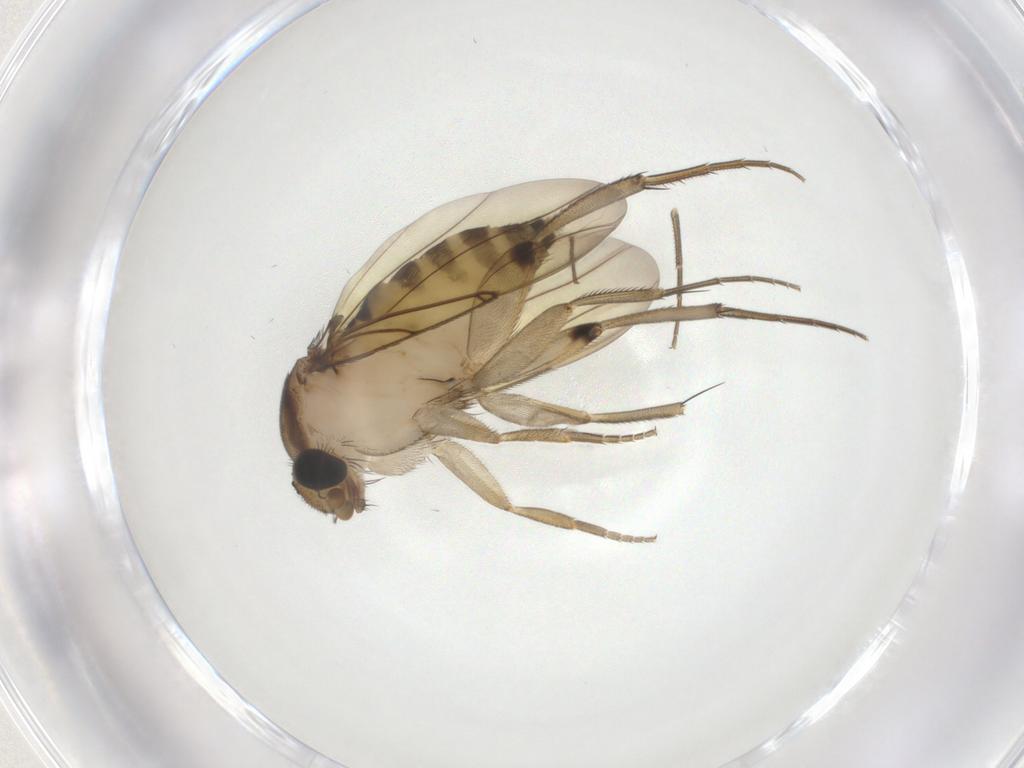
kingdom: Animalia
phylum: Arthropoda
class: Insecta
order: Diptera
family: Phoridae
